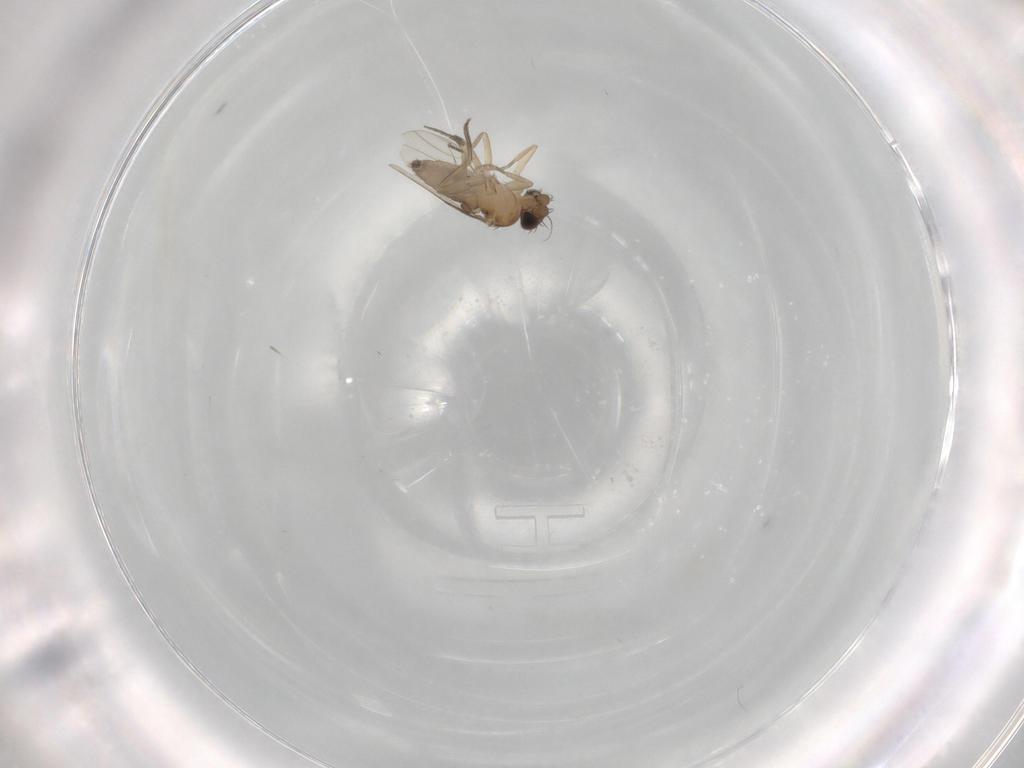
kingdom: Animalia
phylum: Arthropoda
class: Insecta
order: Diptera
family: Phoridae
